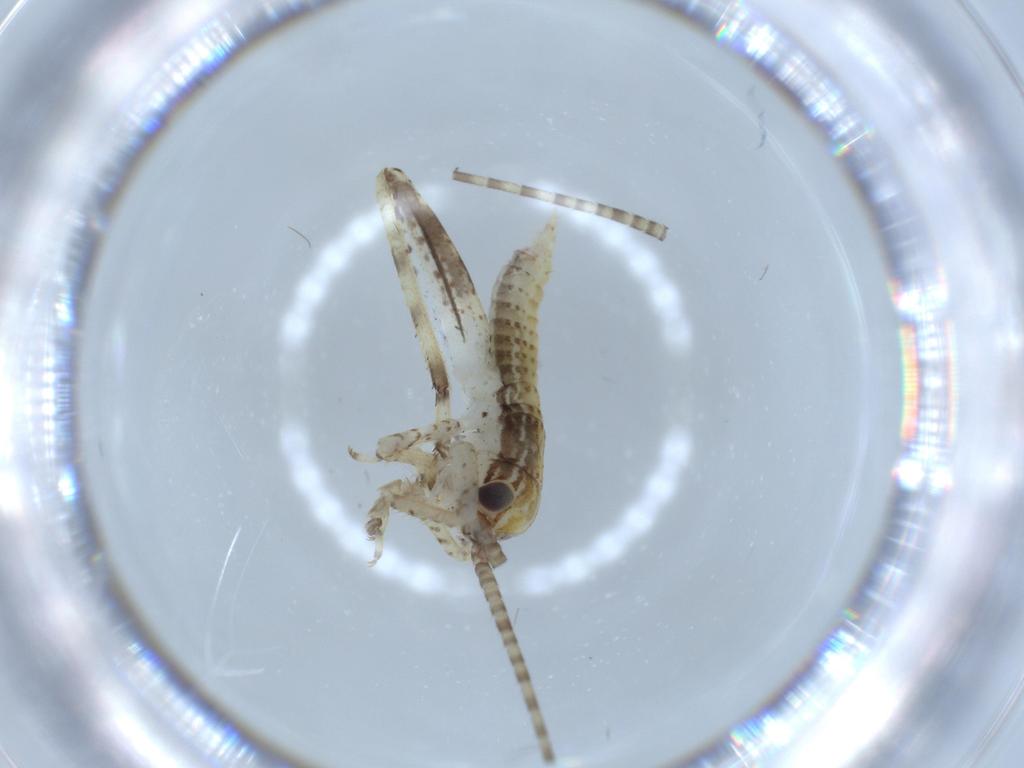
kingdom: Animalia
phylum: Arthropoda
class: Insecta
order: Orthoptera
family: Gryllidae
